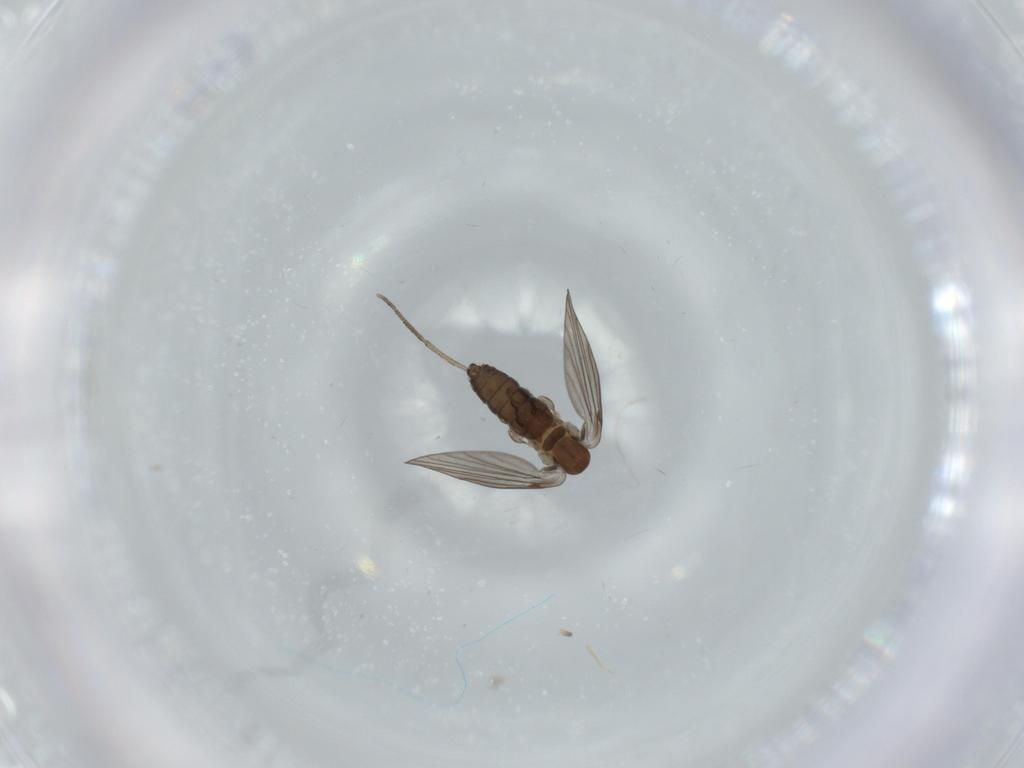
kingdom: Animalia
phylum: Arthropoda
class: Insecta
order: Diptera
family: Psychodidae
